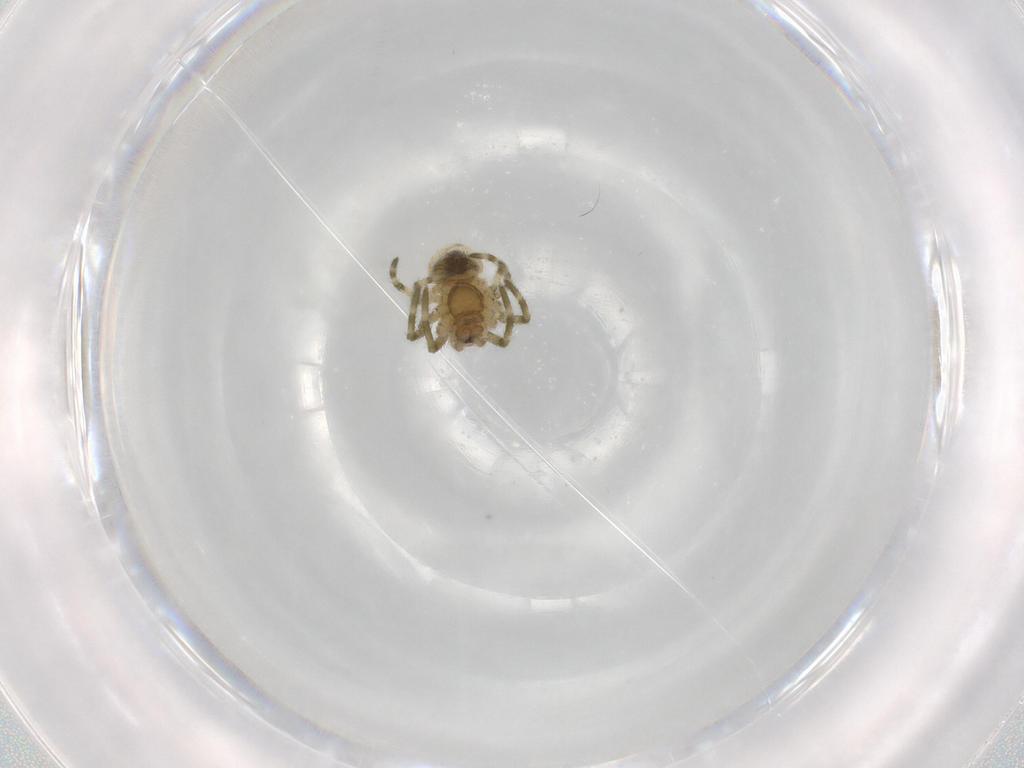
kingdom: Animalia
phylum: Arthropoda
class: Arachnida
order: Araneae
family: Tetragnathidae
